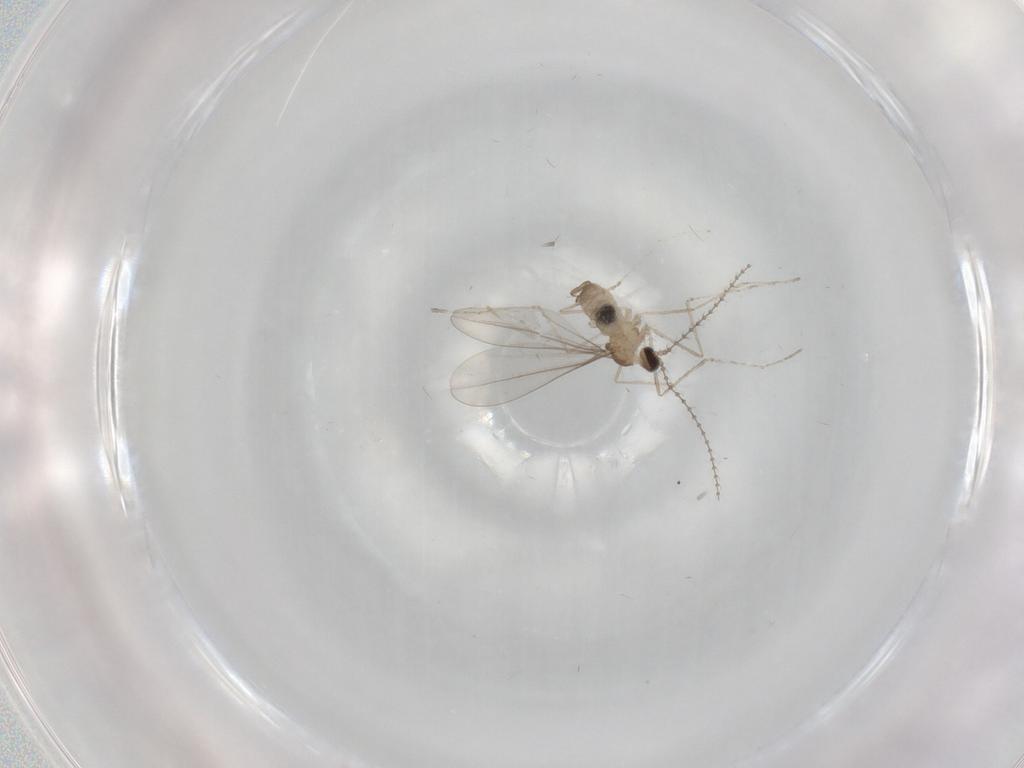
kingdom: Animalia
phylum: Arthropoda
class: Insecta
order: Diptera
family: Cecidomyiidae
